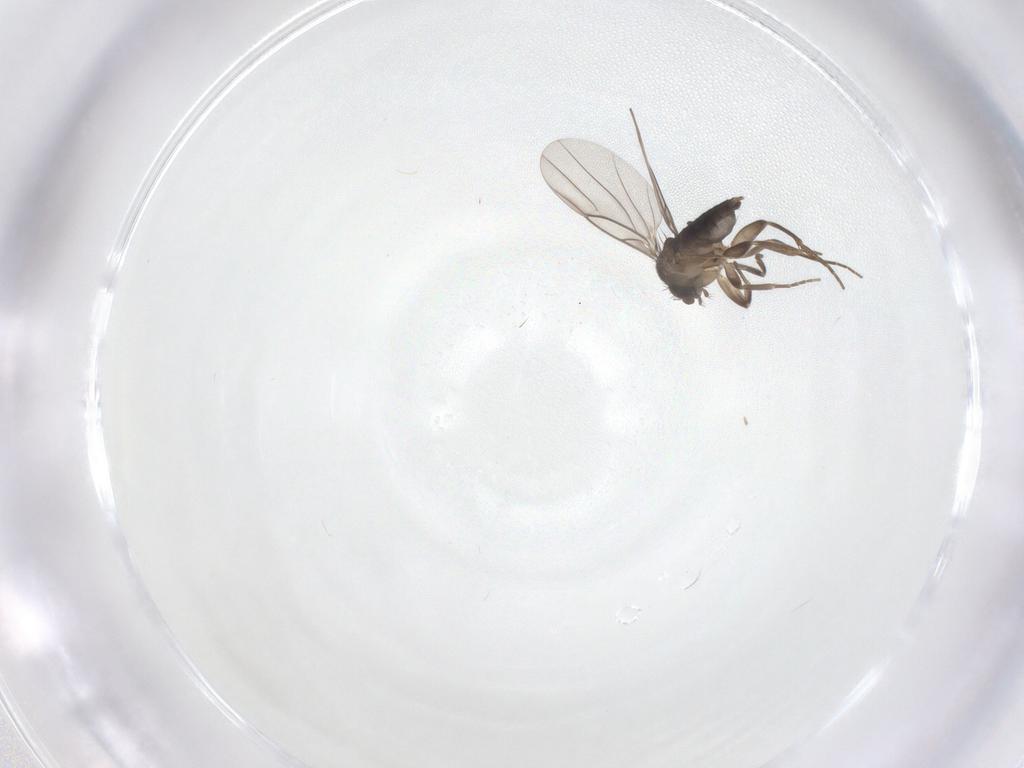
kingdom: Animalia
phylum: Arthropoda
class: Insecta
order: Diptera
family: Phoridae
